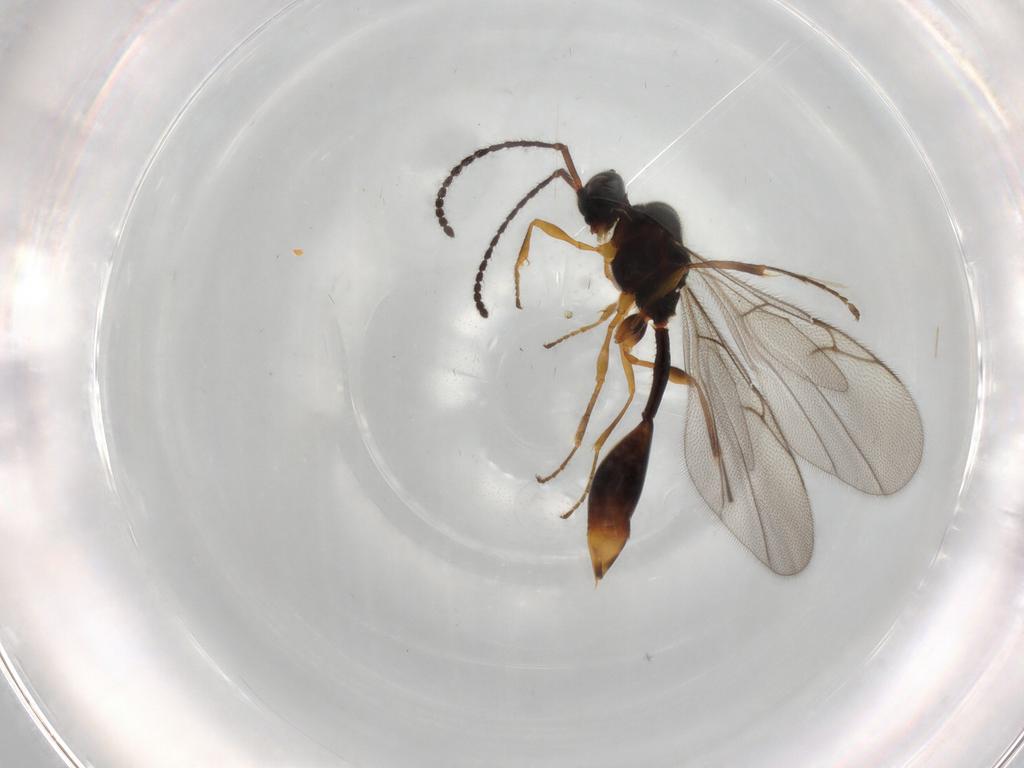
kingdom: Animalia
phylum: Arthropoda
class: Insecta
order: Hymenoptera
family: Diapriidae
